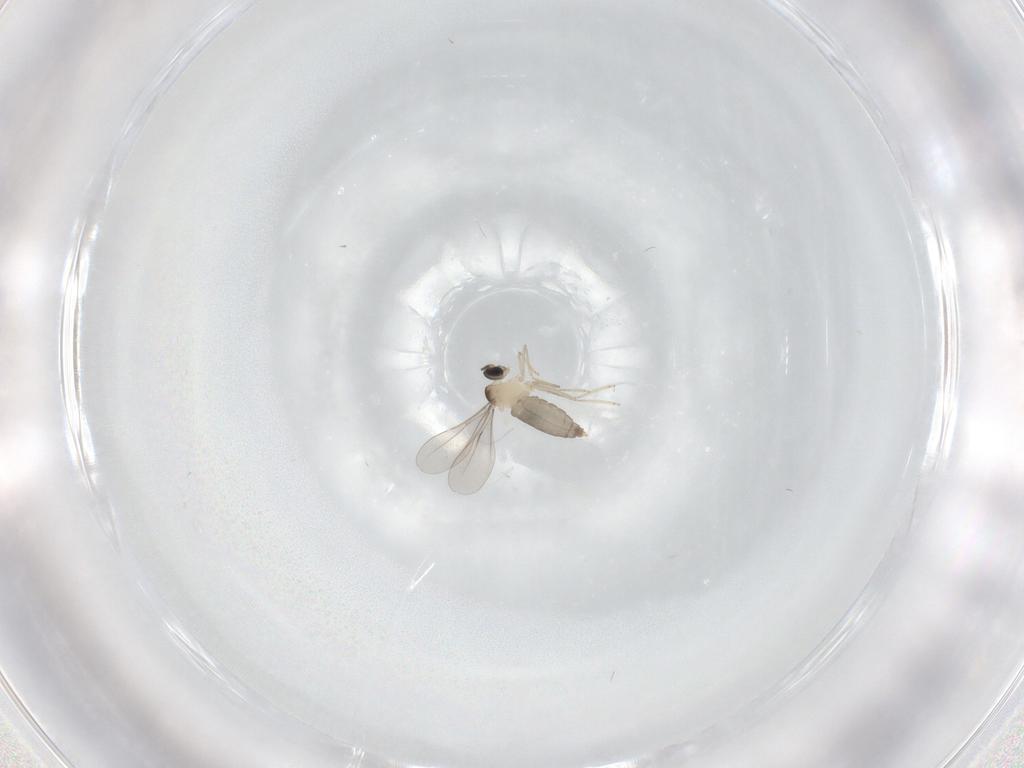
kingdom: Animalia
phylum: Arthropoda
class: Insecta
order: Diptera
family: Cecidomyiidae
